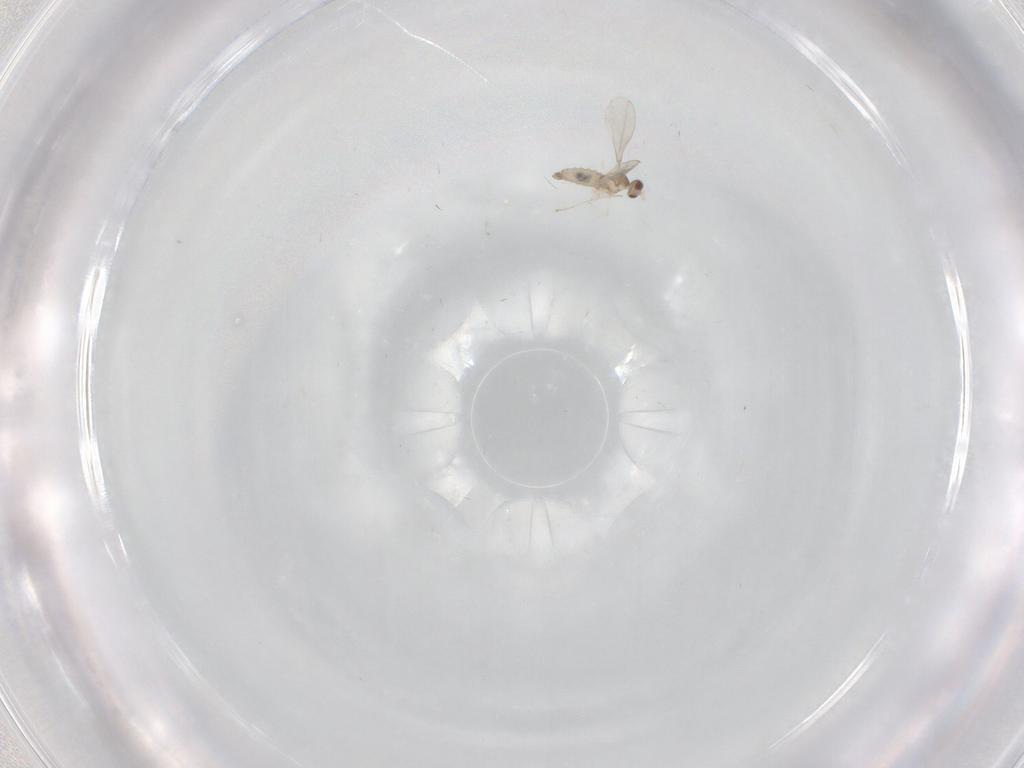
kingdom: Animalia
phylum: Arthropoda
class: Insecta
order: Diptera
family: Cecidomyiidae
